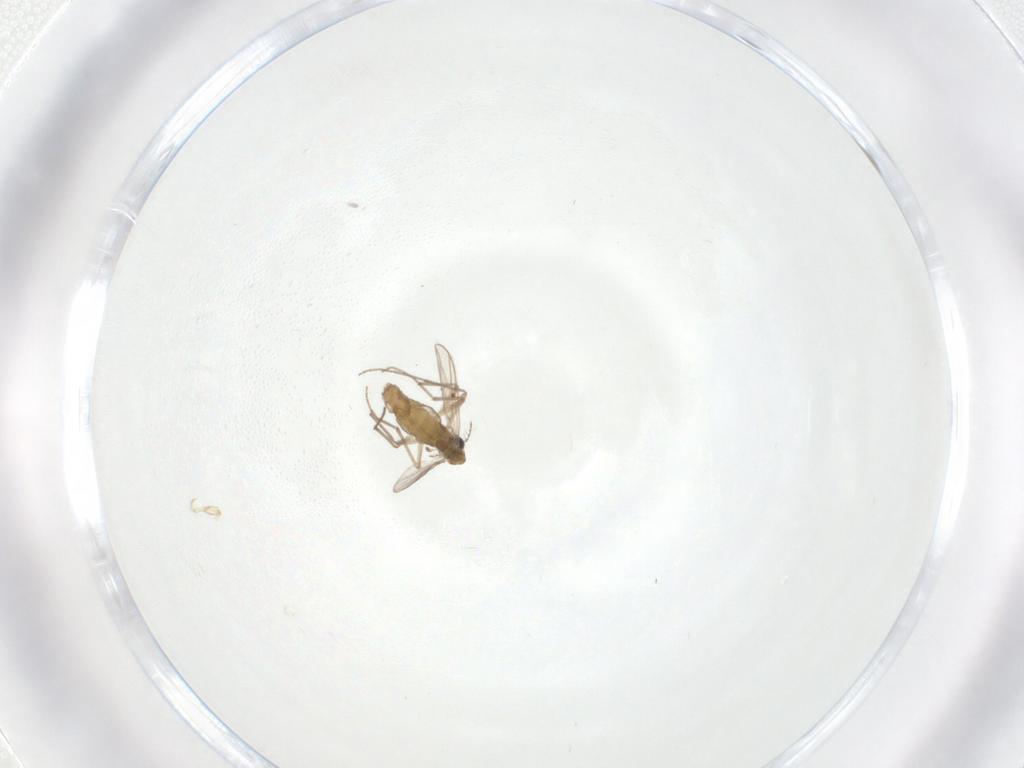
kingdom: Animalia
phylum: Arthropoda
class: Insecta
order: Diptera
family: Chironomidae
